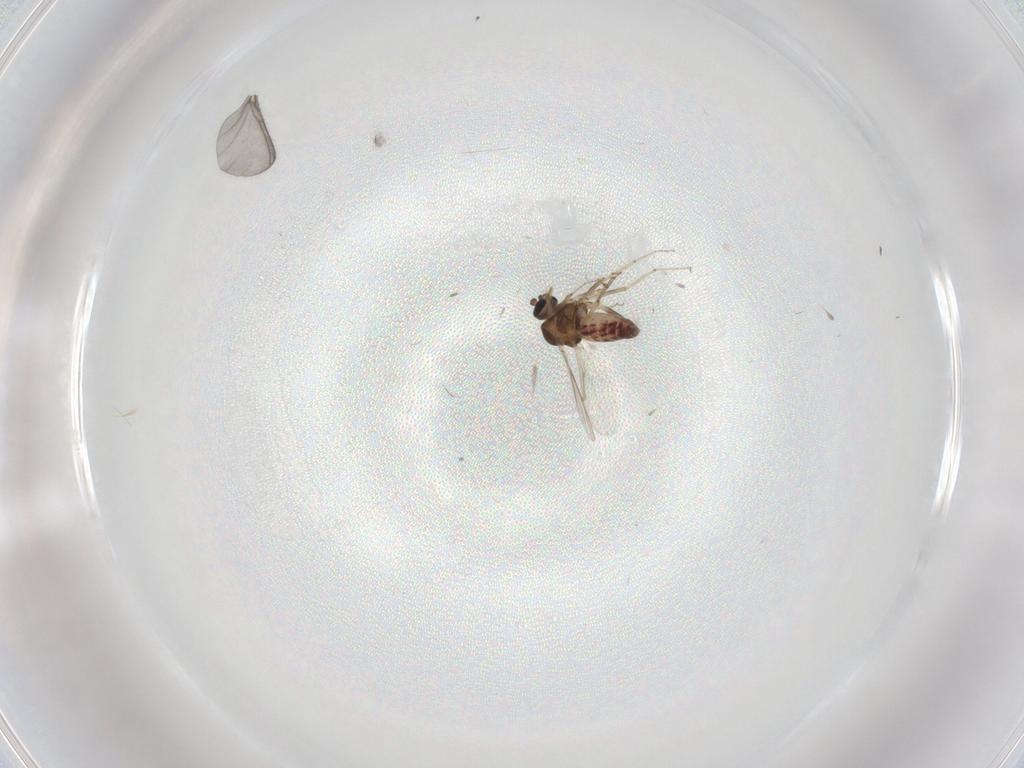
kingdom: Animalia
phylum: Arthropoda
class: Insecta
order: Diptera
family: Ceratopogonidae
